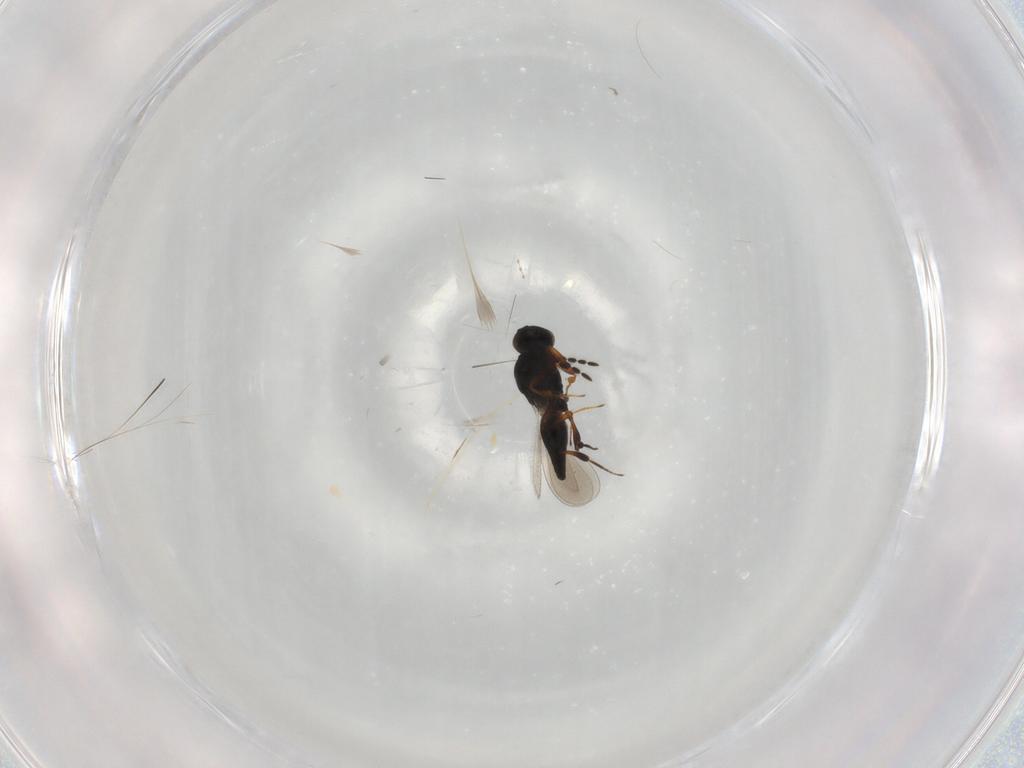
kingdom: Animalia
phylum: Arthropoda
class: Insecta
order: Hymenoptera
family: Platygastridae
